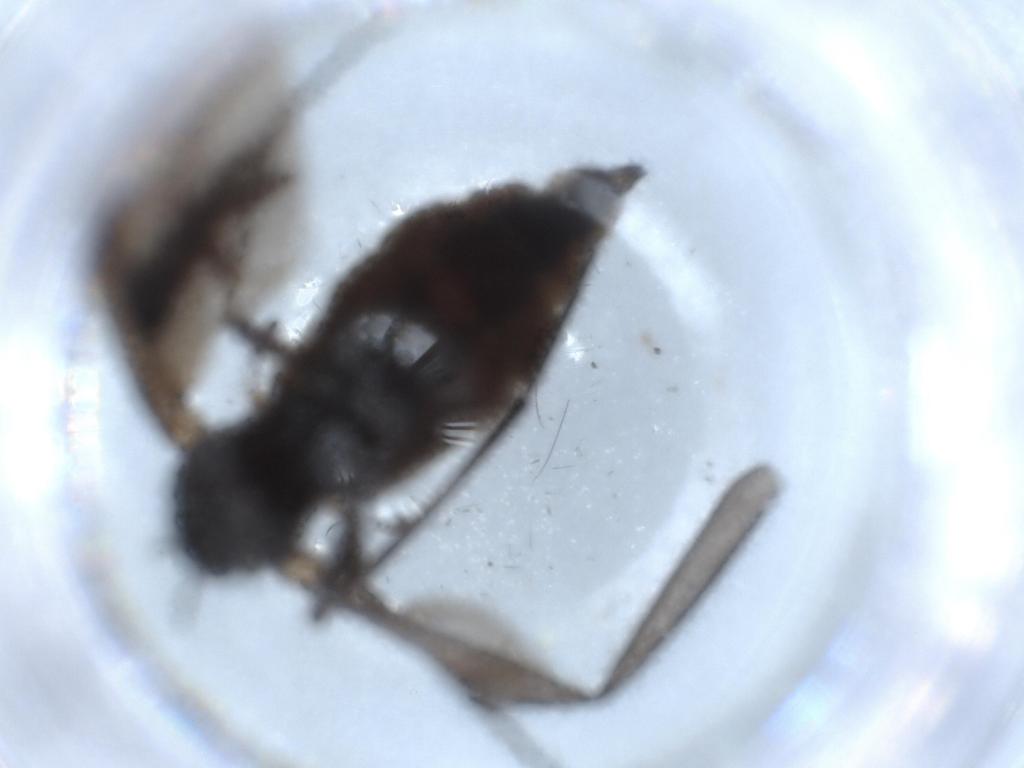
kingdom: Animalia
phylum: Arthropoda
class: Insecta
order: Diptera
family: Sciaridae
